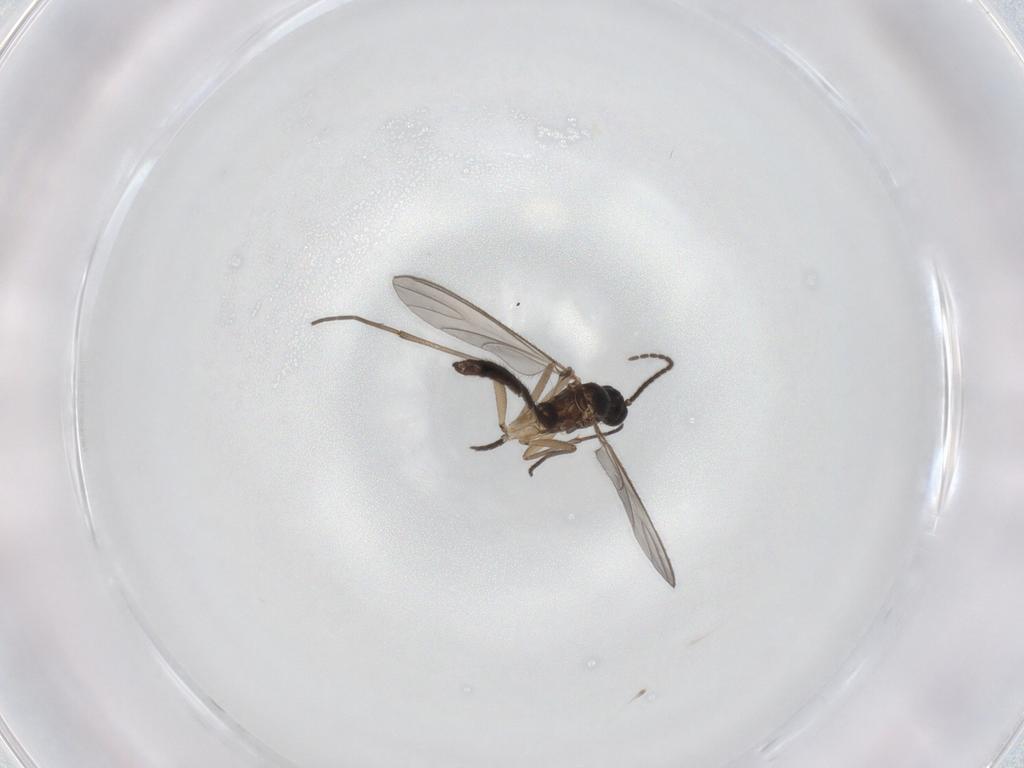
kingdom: Animalia
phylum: Arthropoda
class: Insecta
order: Diptera
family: Sciaridae
